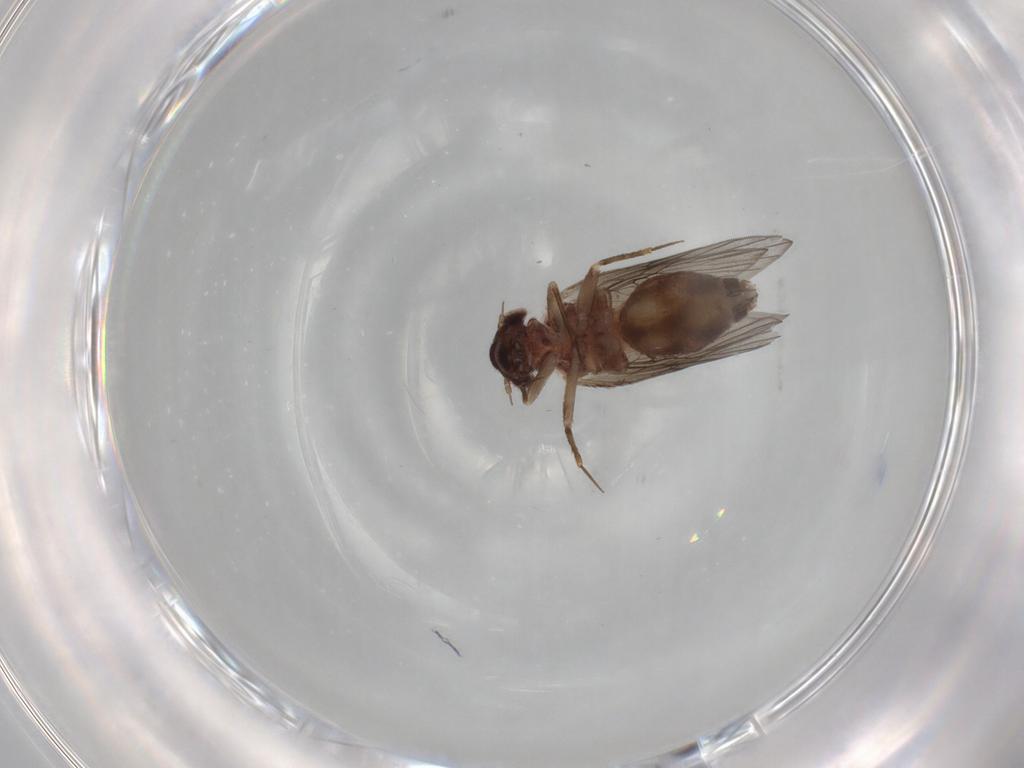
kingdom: Animalia
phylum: Arthropoda
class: Insecta
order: Psocodea
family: Lepidopsocidae
